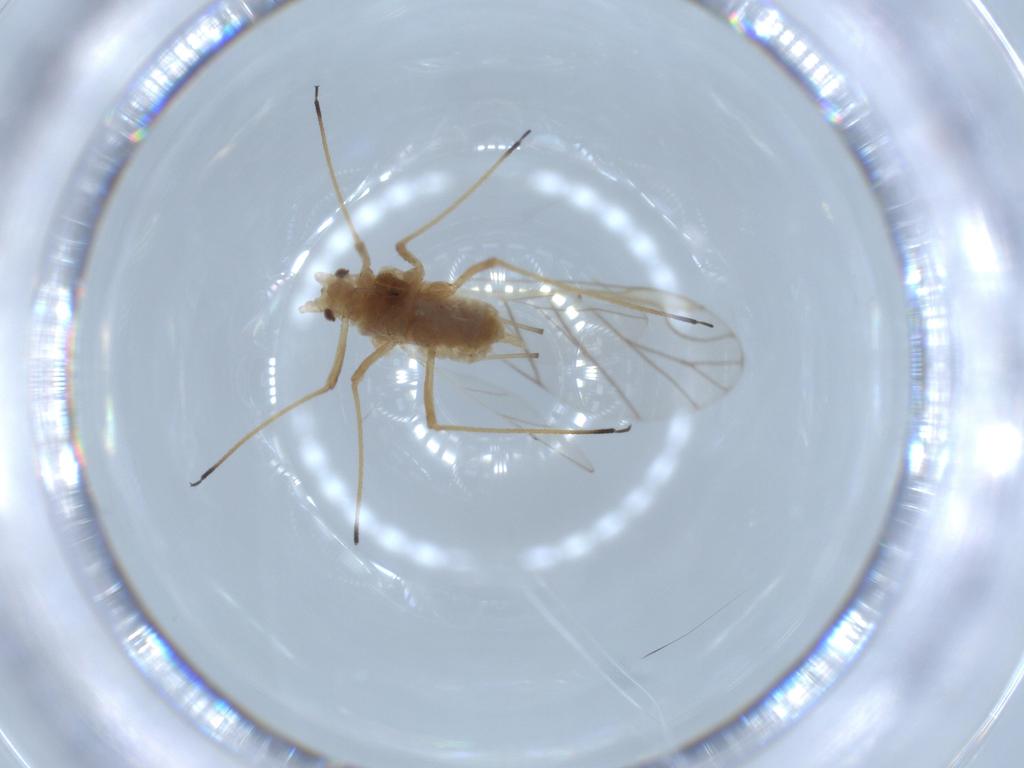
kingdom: Animalia
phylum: Arthropoda
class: Insecta
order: Hemiptera
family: Aphididae
